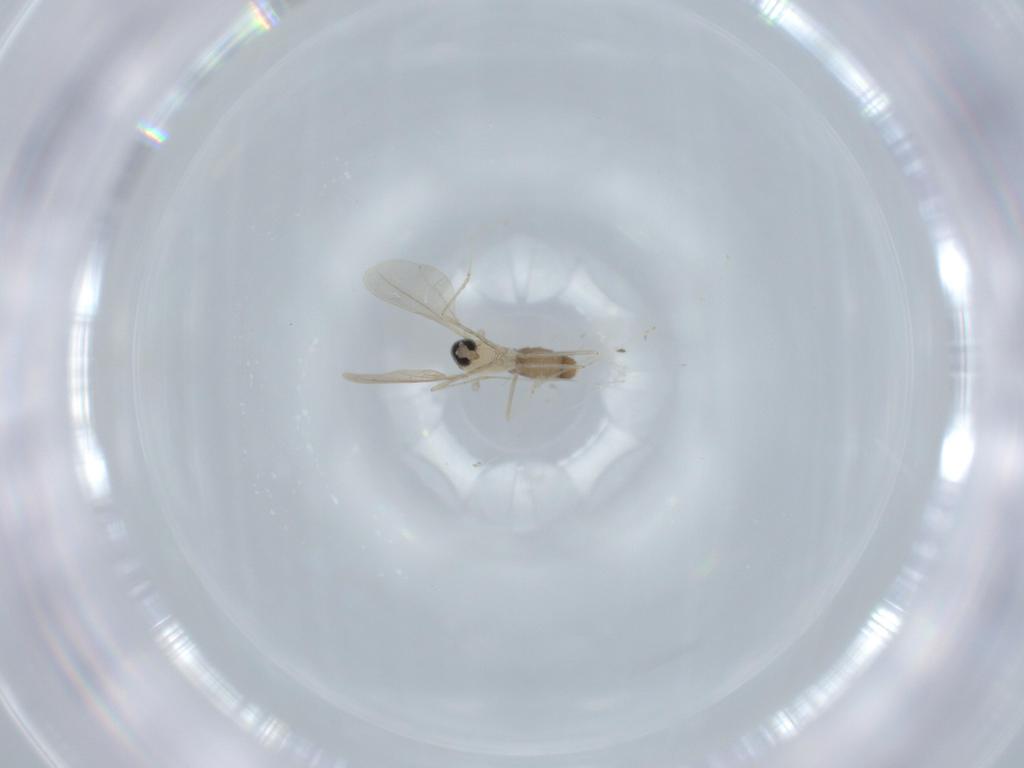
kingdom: Animalia
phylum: Arthropoda
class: Insecta
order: Diptera
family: Cecidomyiidae
